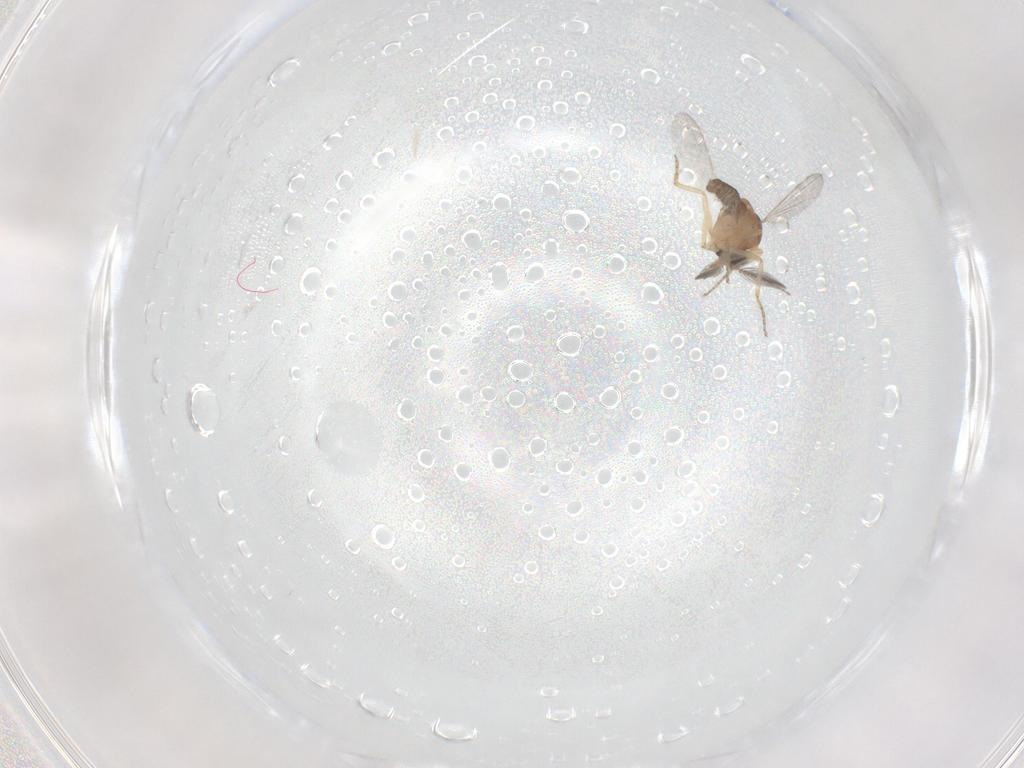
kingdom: Animalia
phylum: Arthropoda
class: Insecta
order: Diptera
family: Ceratopogonidae
